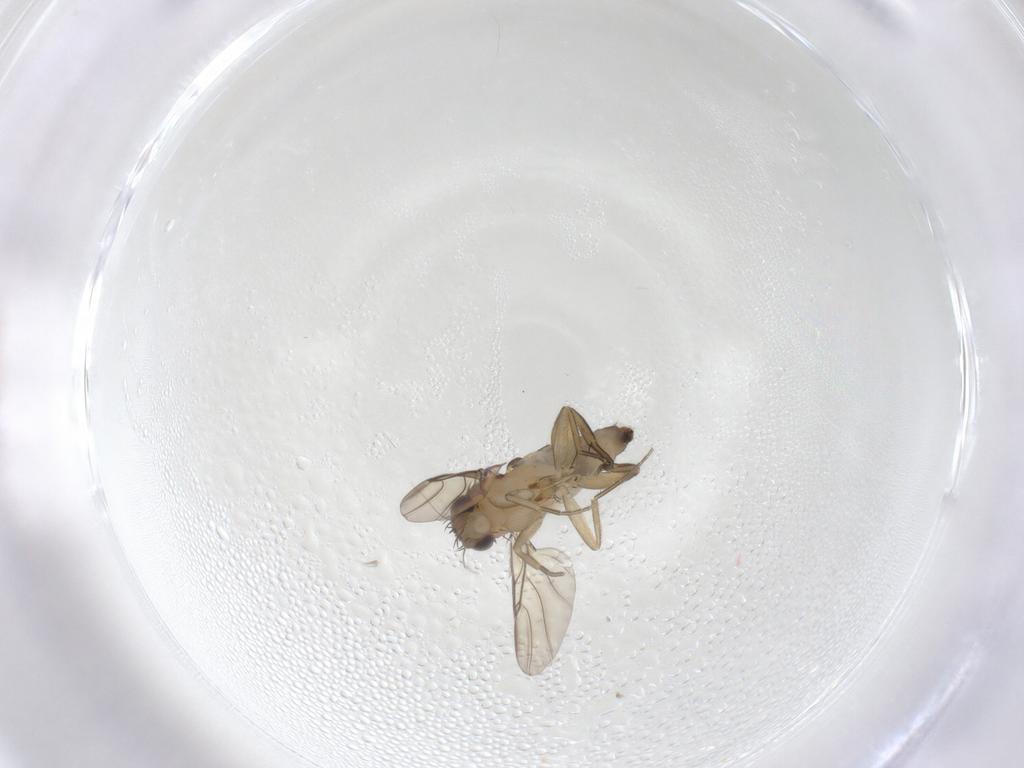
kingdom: Animalia
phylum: Arthropoda
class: Insecta
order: Diptera
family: Phoridae
